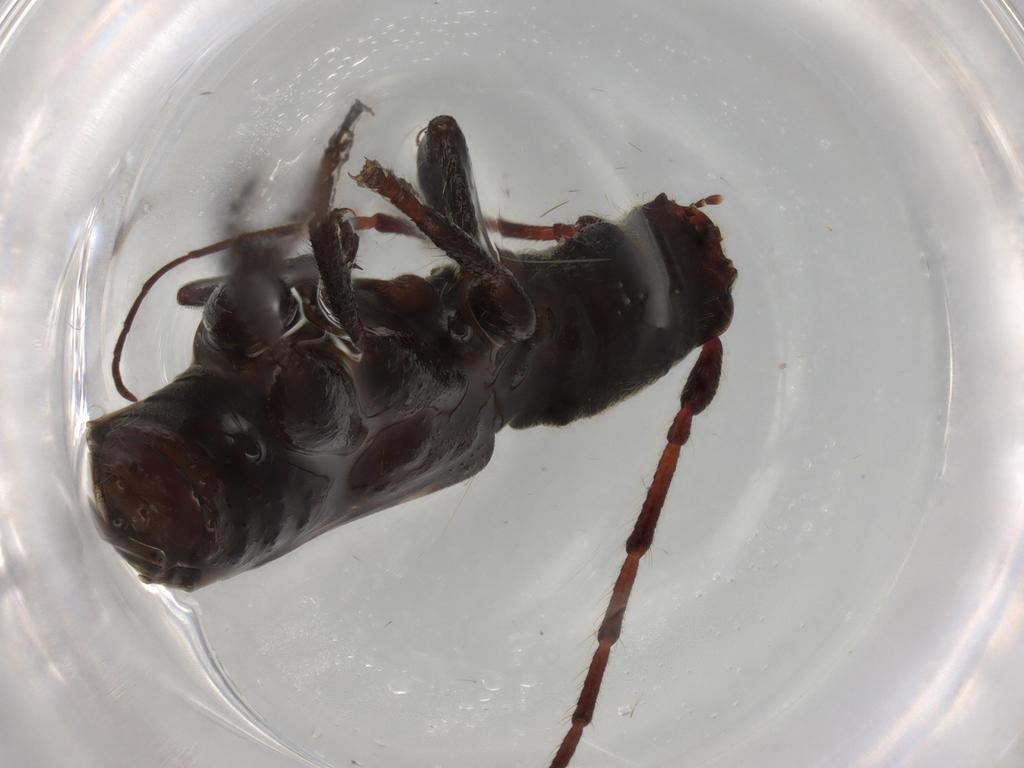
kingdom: Animalia
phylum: Arthropoda
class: Insecta
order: Coleoptera
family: Cerambycidae
